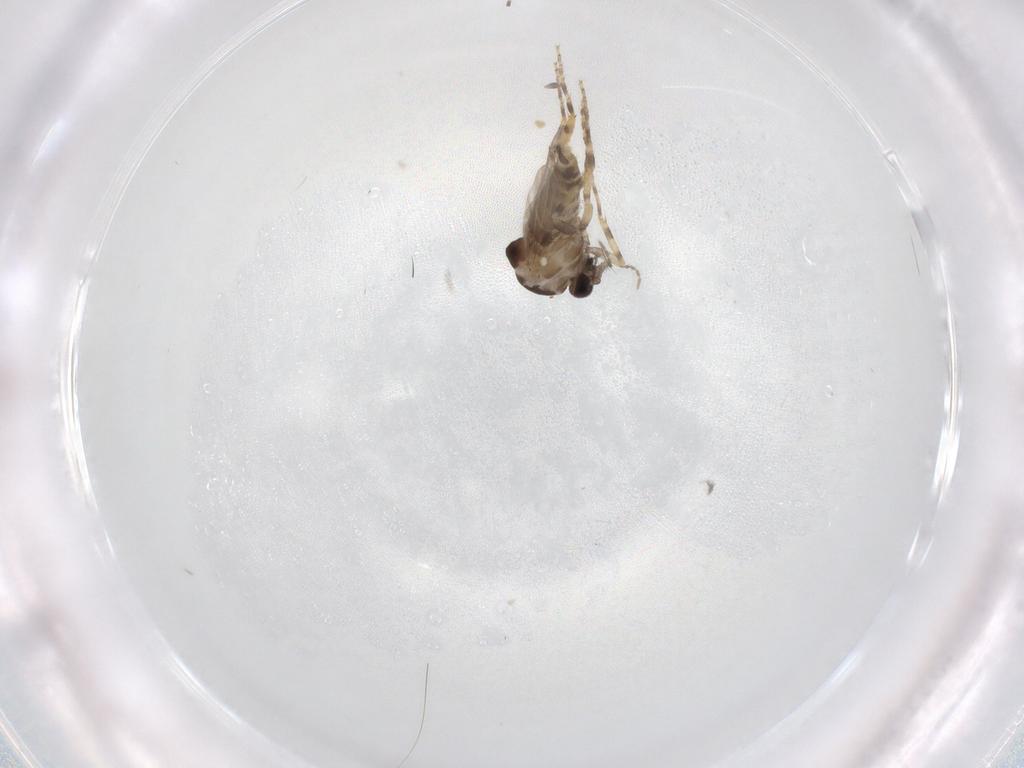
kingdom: Animalia
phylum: Arthropoda
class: Insecta
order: Diptera
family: Ceratopogonidae
